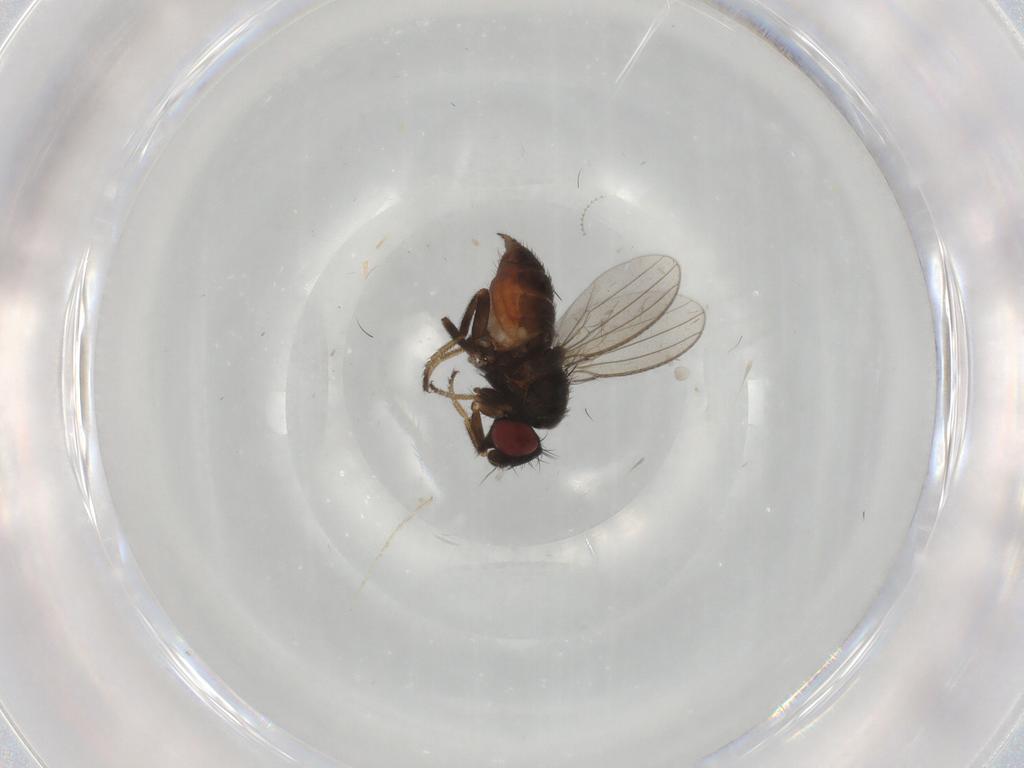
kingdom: Animalia
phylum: Arthropoda
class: Insecta
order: Diptera
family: Milichiidae
